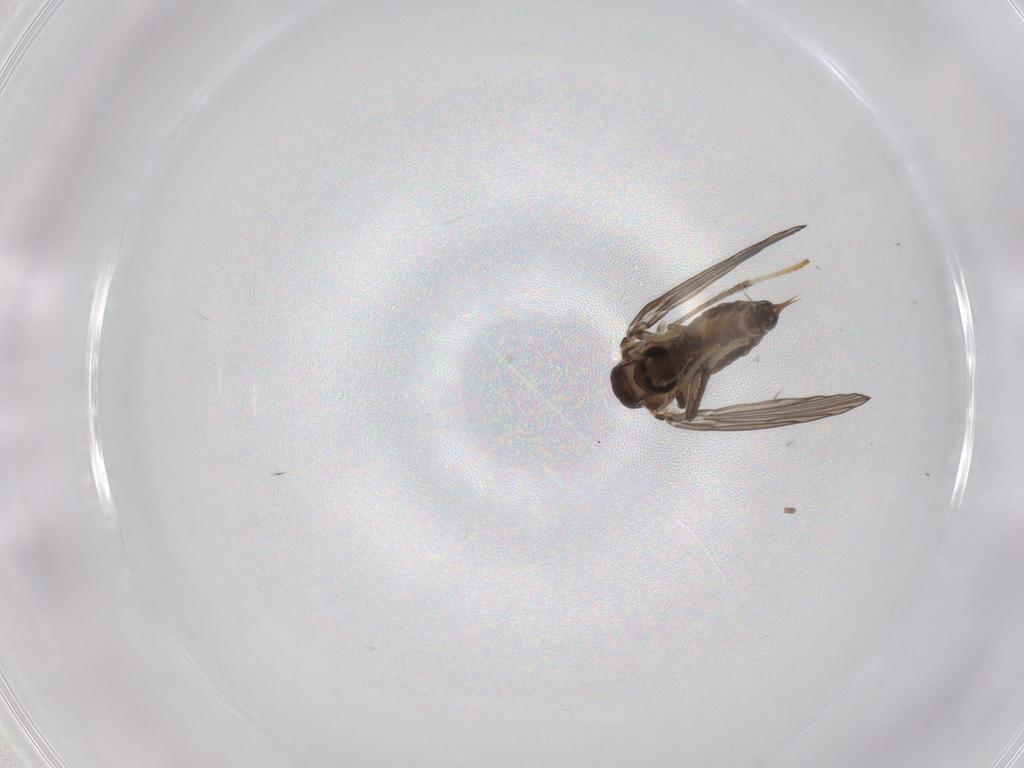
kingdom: Animalia
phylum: Arthropoda
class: Insecta
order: Diptera
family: Psychodidae
